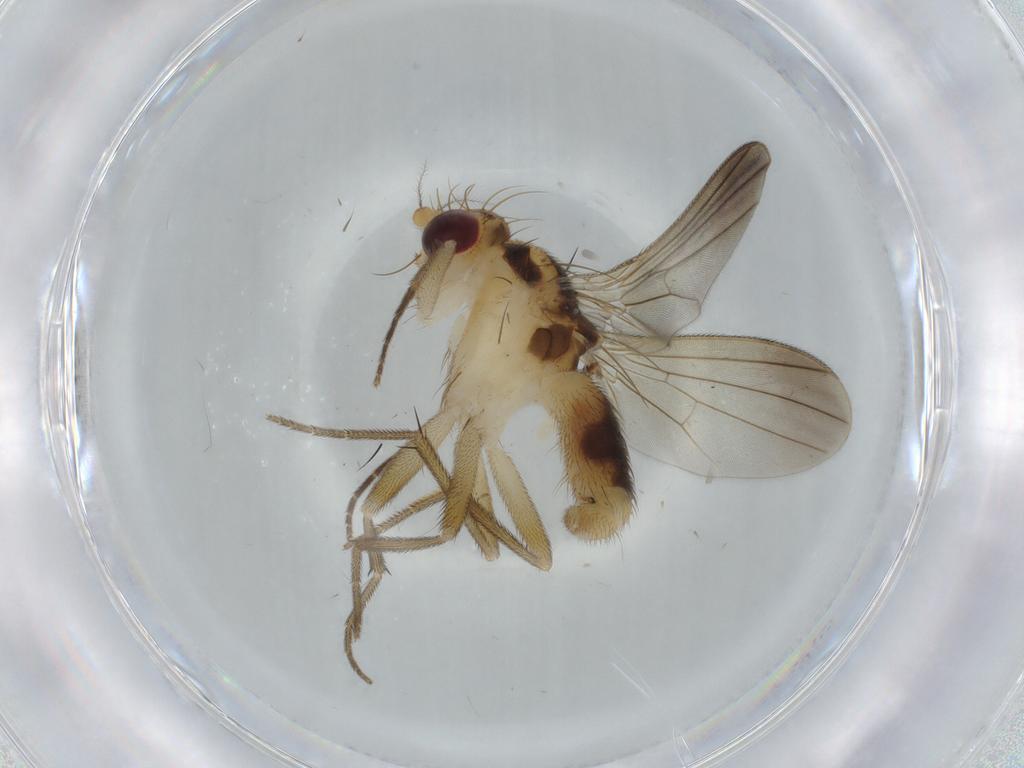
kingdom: Animalia
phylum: Arthropoda
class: Insecta
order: Diptera
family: Clusiidae
